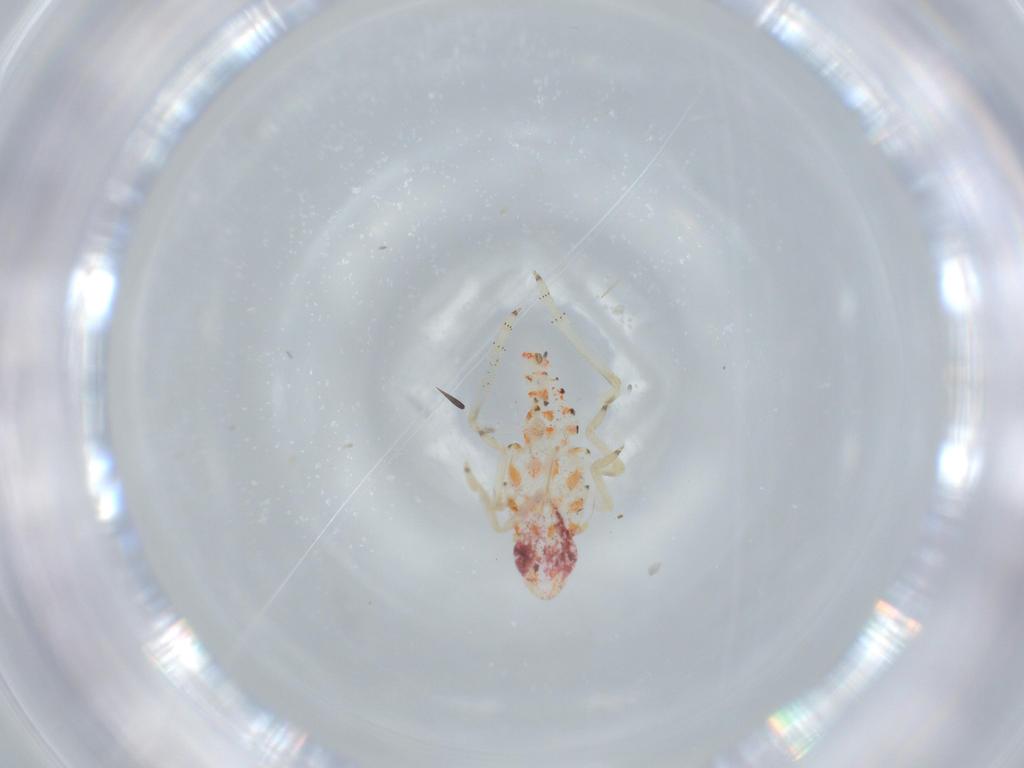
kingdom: Animalia
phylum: Arthropoda
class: Insecta
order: Hemiptera
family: Tropiduchidae
